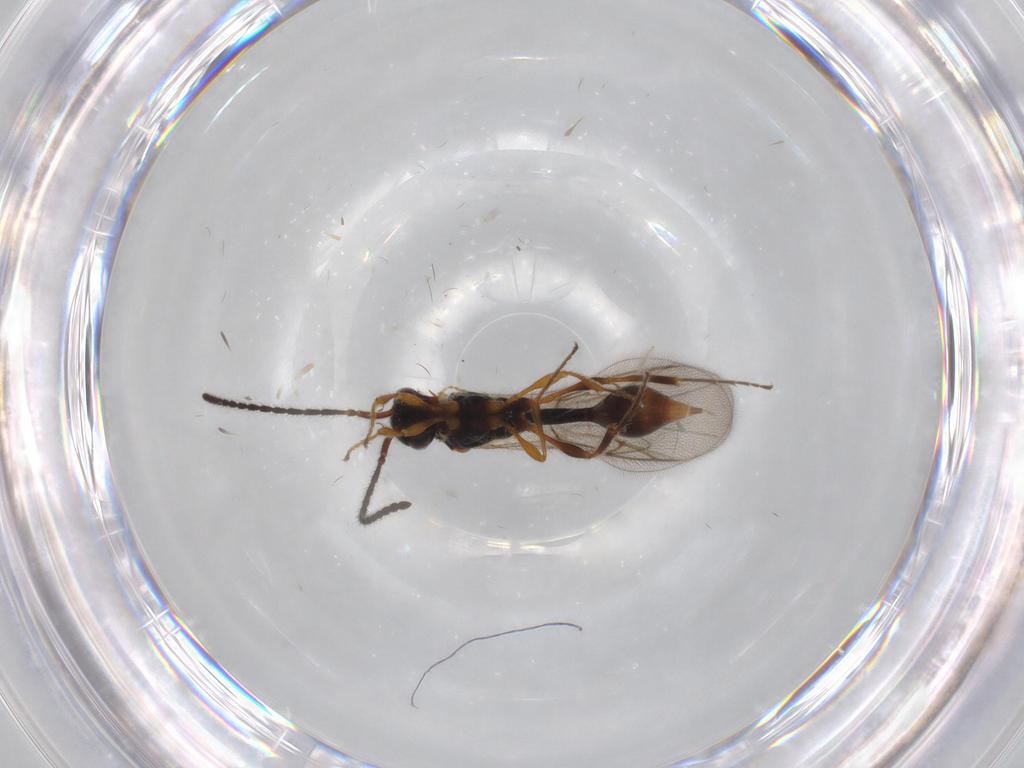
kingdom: Animalia
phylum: Arthropoda
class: Insecta
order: Hymenoptera
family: Diapriidae
